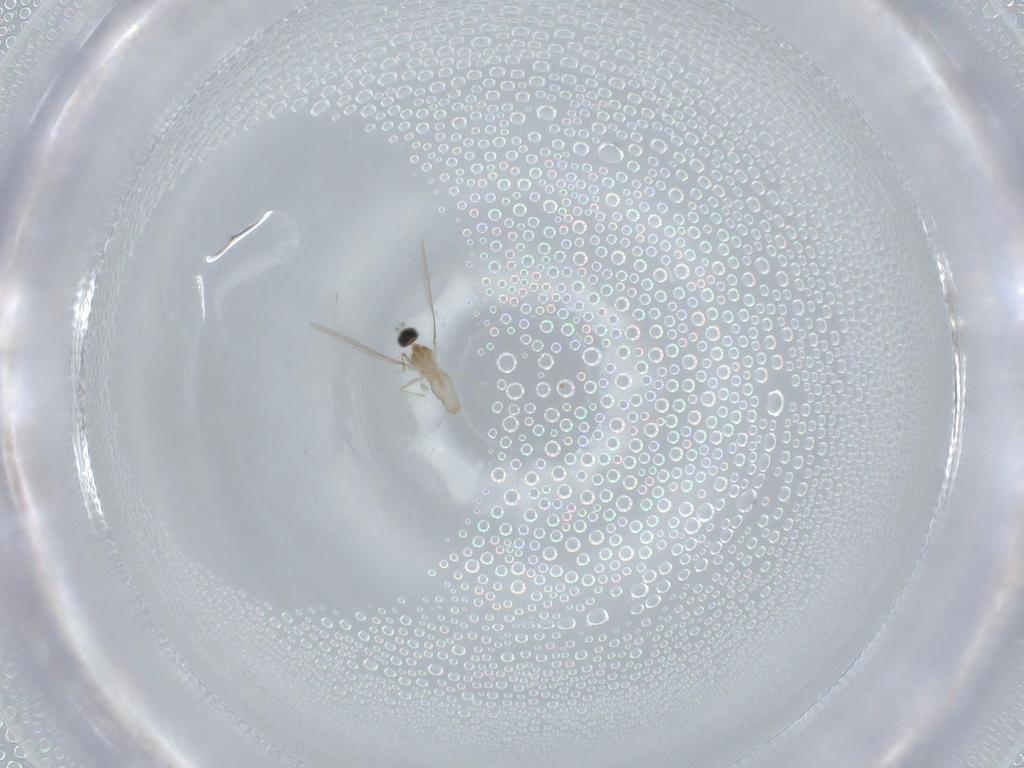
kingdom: Animalia
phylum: Arthropoda
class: Insecta
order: Diptera
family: Cecidomyiidae
